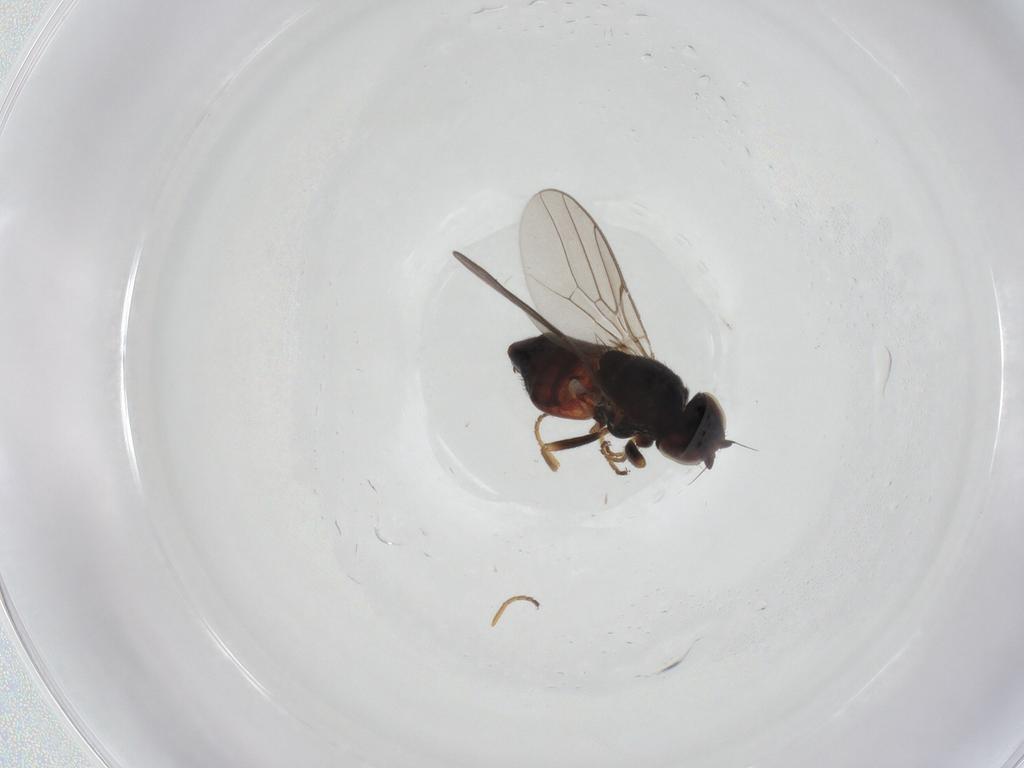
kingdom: Animalia
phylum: Arthropoda
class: Insecta
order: Diptera
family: Chloropidae
